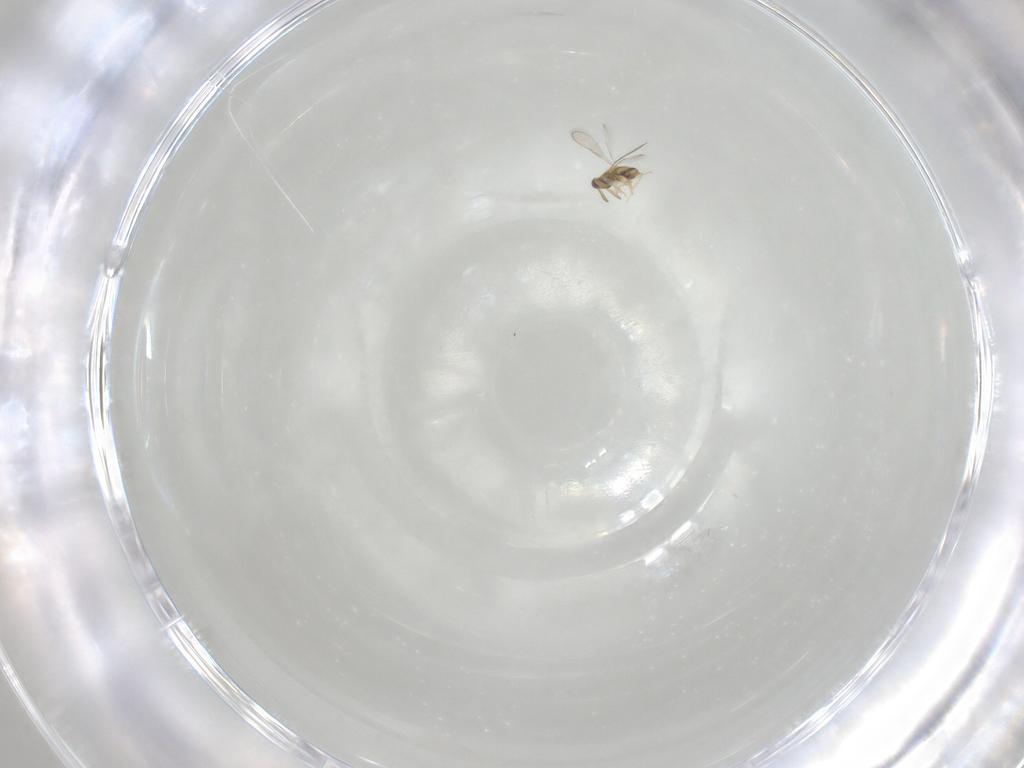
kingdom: Animalia
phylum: Arthropoda
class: Insecta
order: Hymenoptera
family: Aphelinidae
